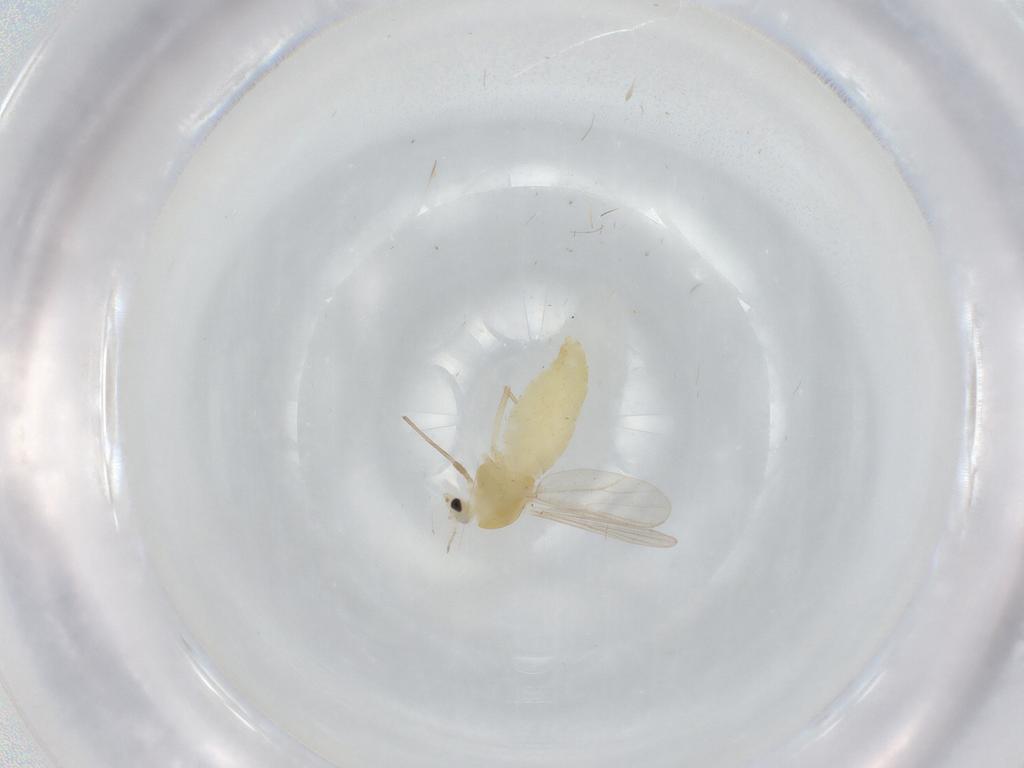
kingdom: Animalia
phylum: Arthropoda
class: Insecta
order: Diptera
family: Chironomidae
